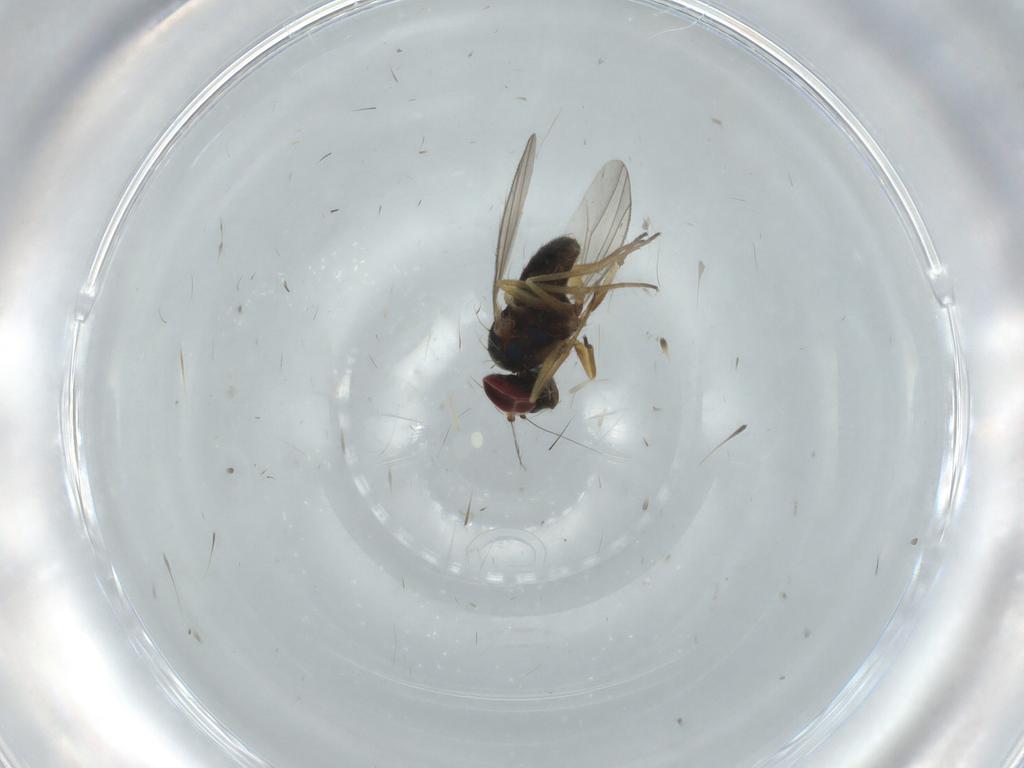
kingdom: Animalia
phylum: Arthropoda
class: Insecta
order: Diptera
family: Dolichopodidae
